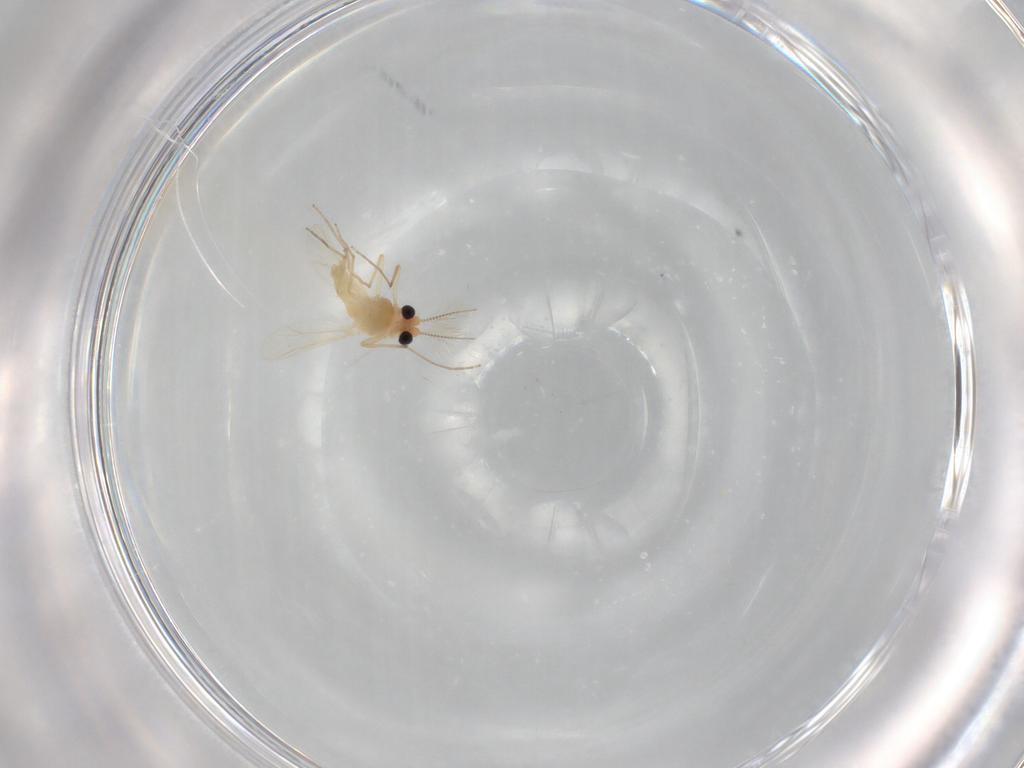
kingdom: Animalia
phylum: Arthropoda
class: Insecta
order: Diptera
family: Chironomidae
